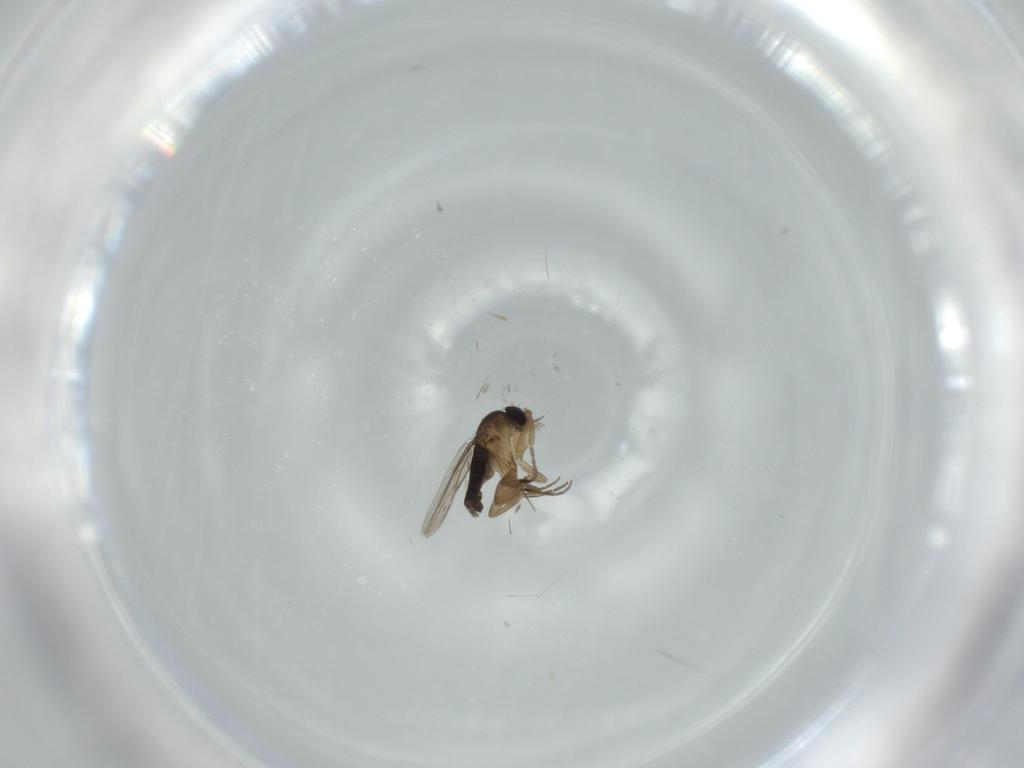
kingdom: Animalia
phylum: Arthropoda
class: Insecta
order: Diptera
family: Phoridae
